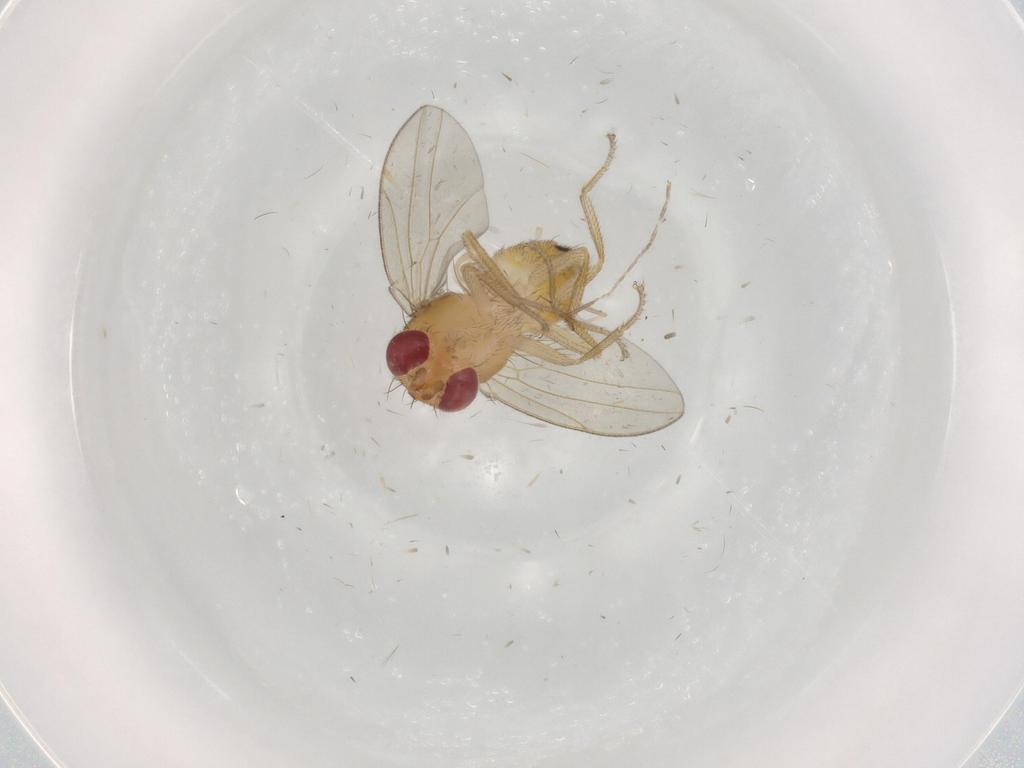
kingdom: Animalia
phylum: Arthropoda
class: Insecta
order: Diptera
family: Drosophilidae
